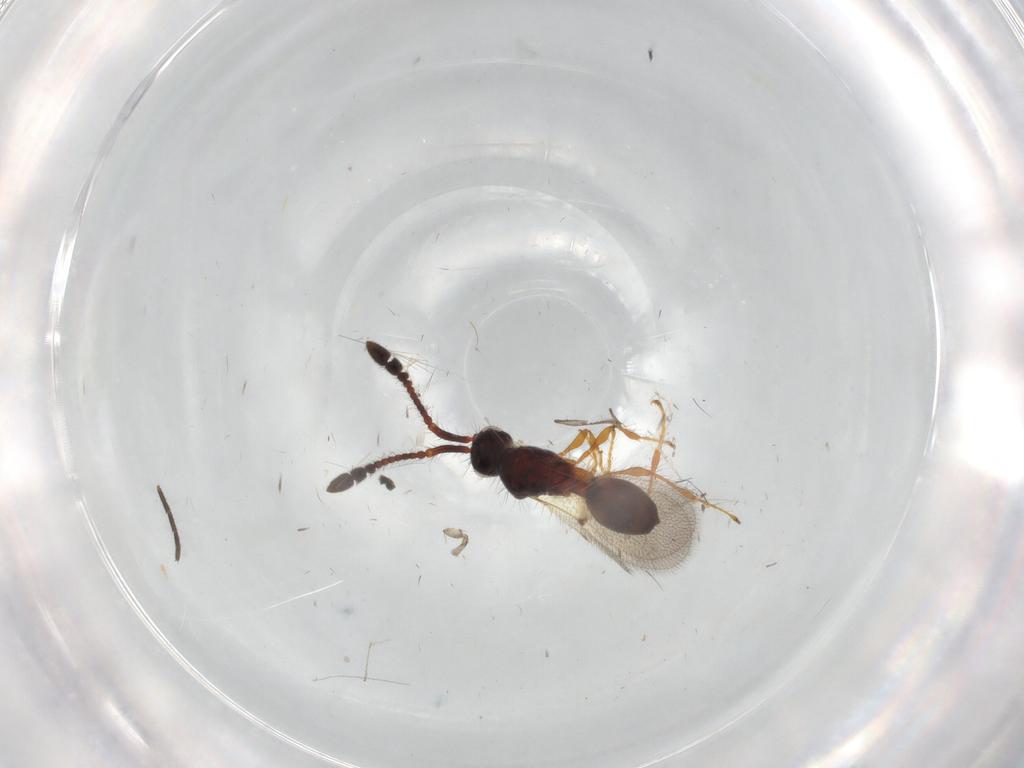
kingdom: Animalia
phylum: Arthropoda
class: Insecta
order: Hymenoptera
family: Diapriidae
